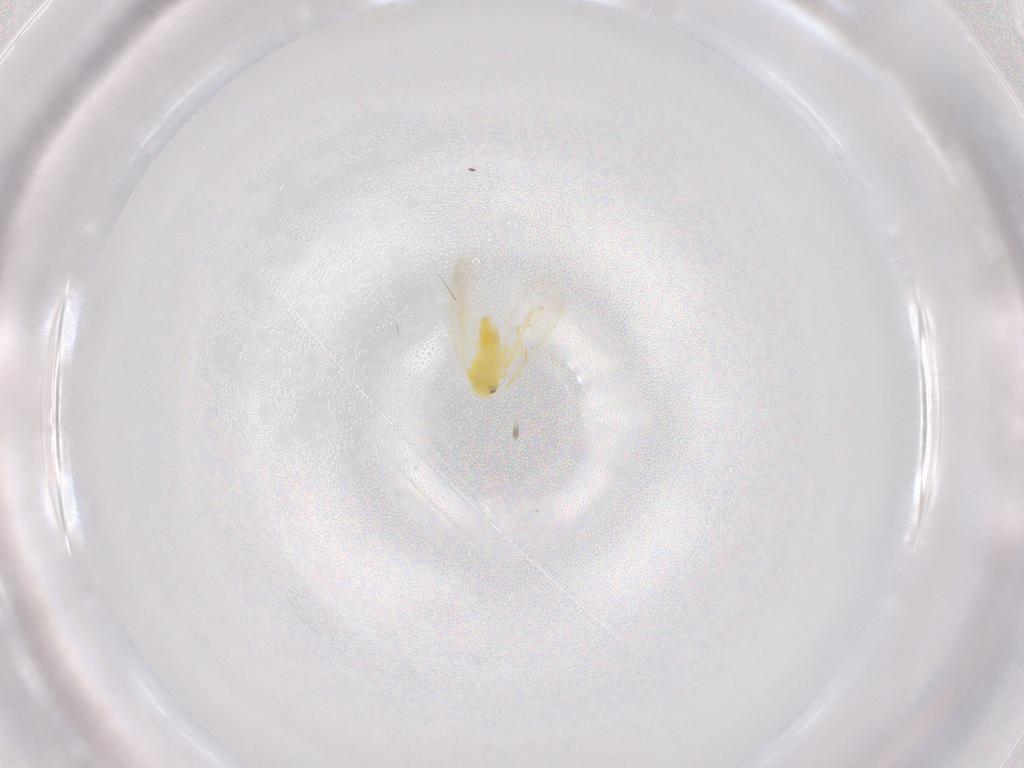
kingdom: Animalia
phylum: Arthropoda
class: Insecta
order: Hemiptera
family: Aleyrodidae
